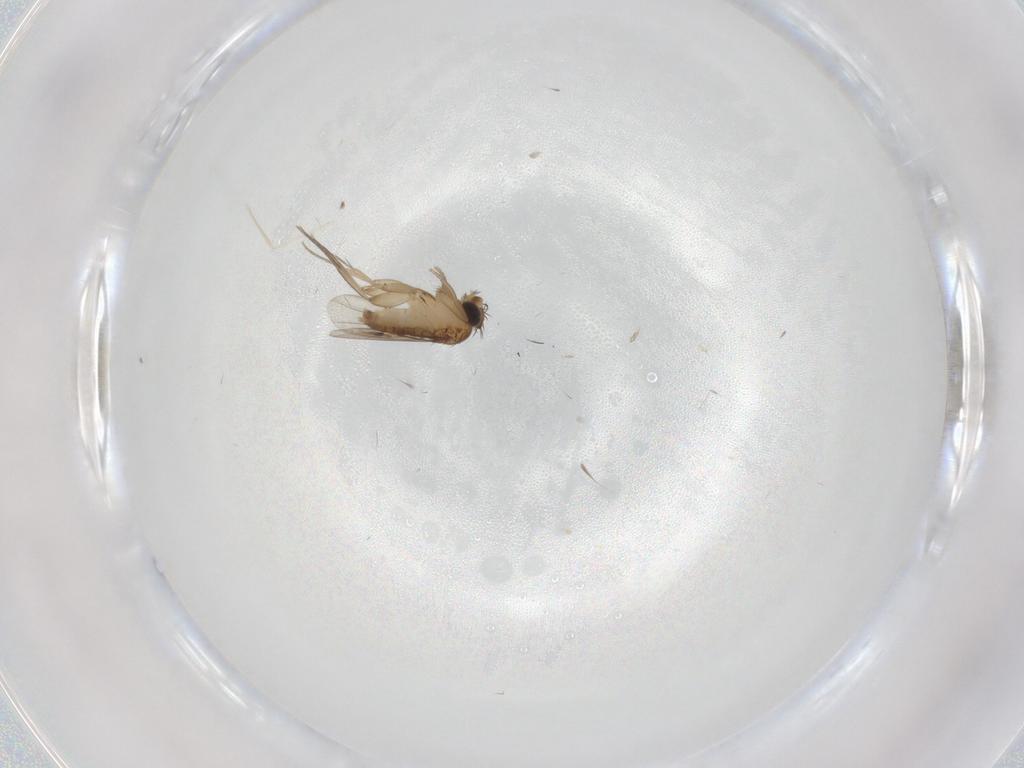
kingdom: Animalia
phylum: Arthropoda
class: Insecta
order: Diptera
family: Phoridae
